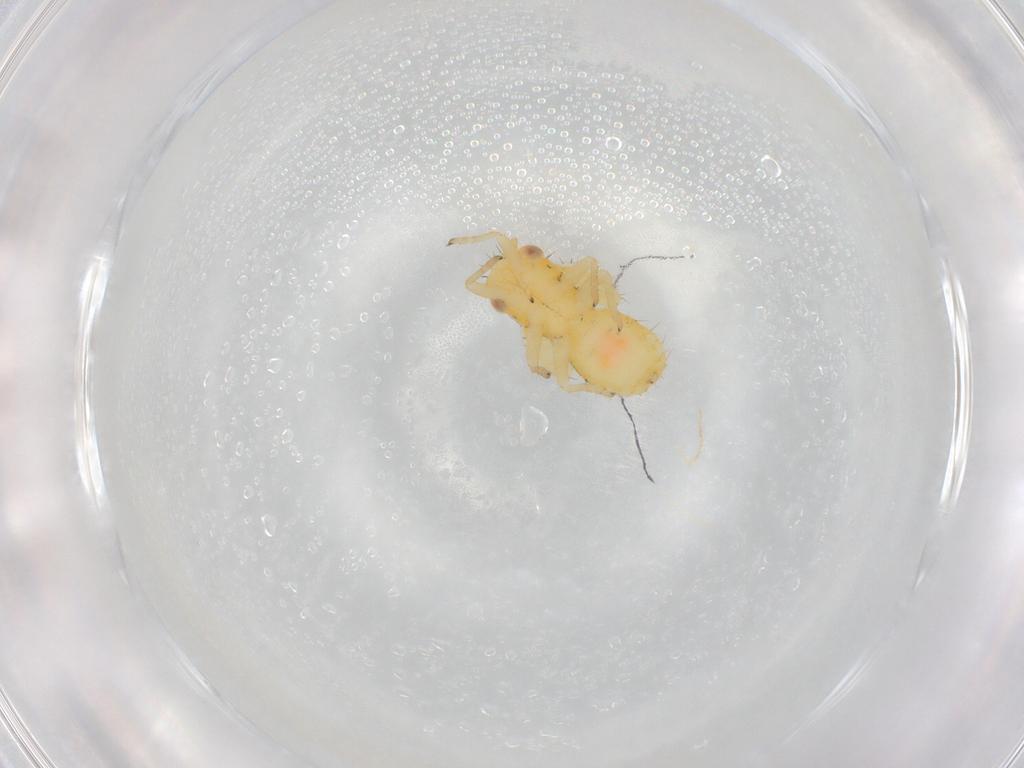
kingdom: Animalia
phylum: Arthropoda
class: Insecta
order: Hemiptera
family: Psyllidae
